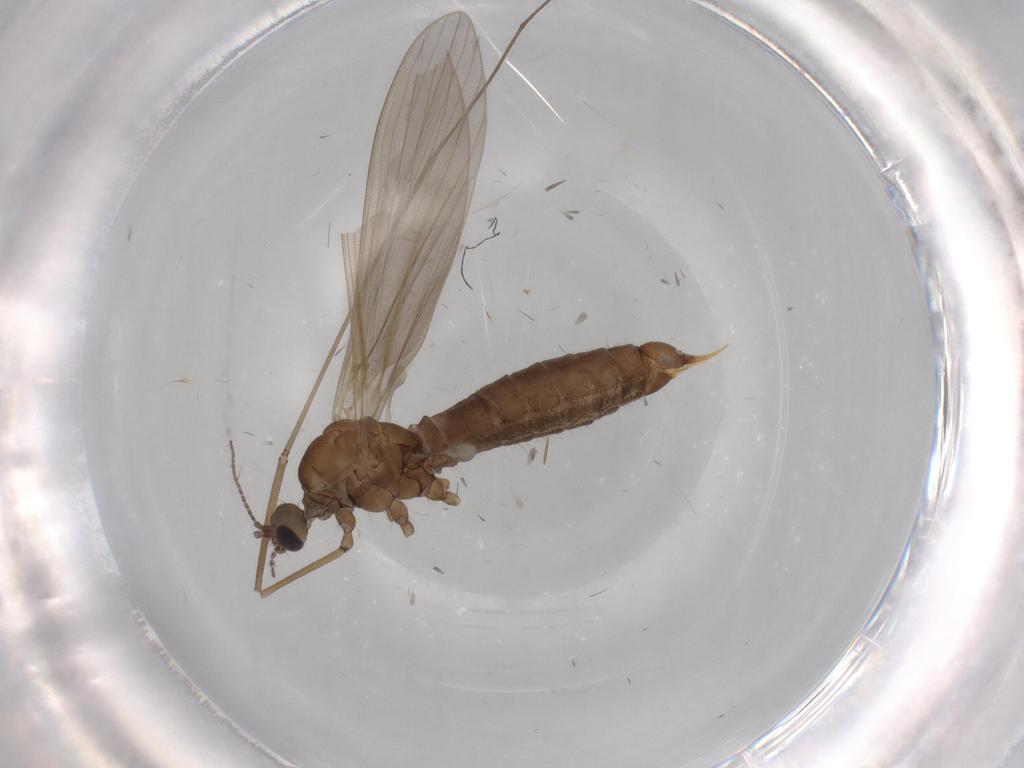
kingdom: Animalia
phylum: Arthropoda
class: Insecta
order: Diptera
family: Limoniidae
